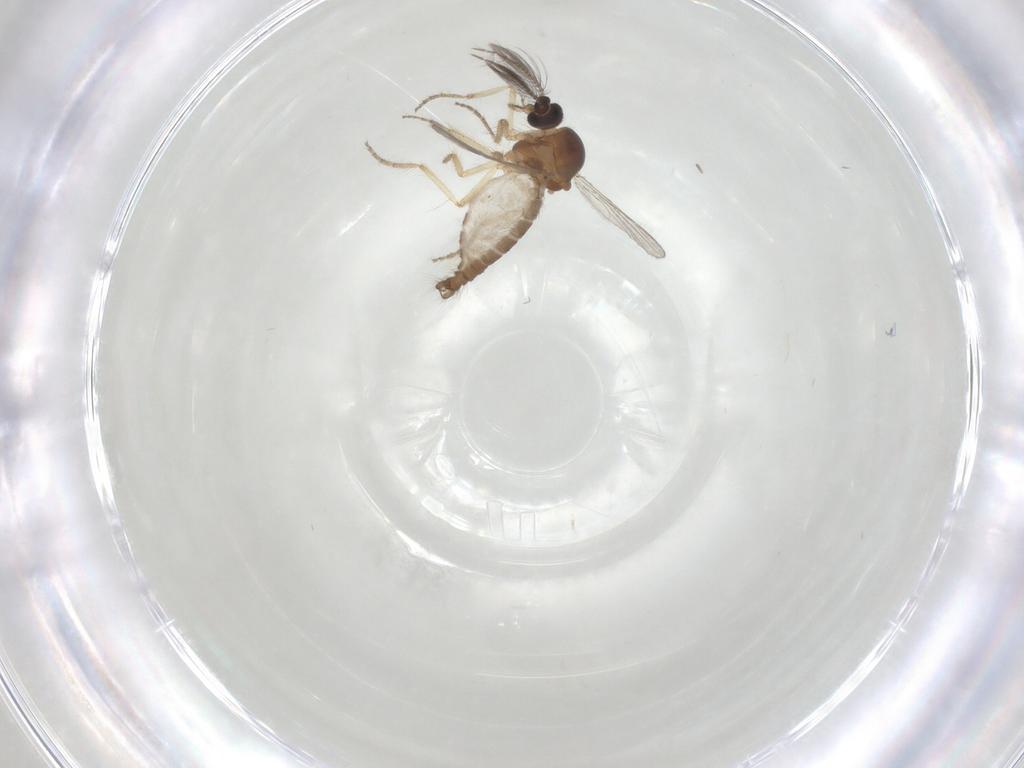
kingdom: Animalia
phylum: Arthropoda
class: Insecta
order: Diptera
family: Ceratopogonidae
